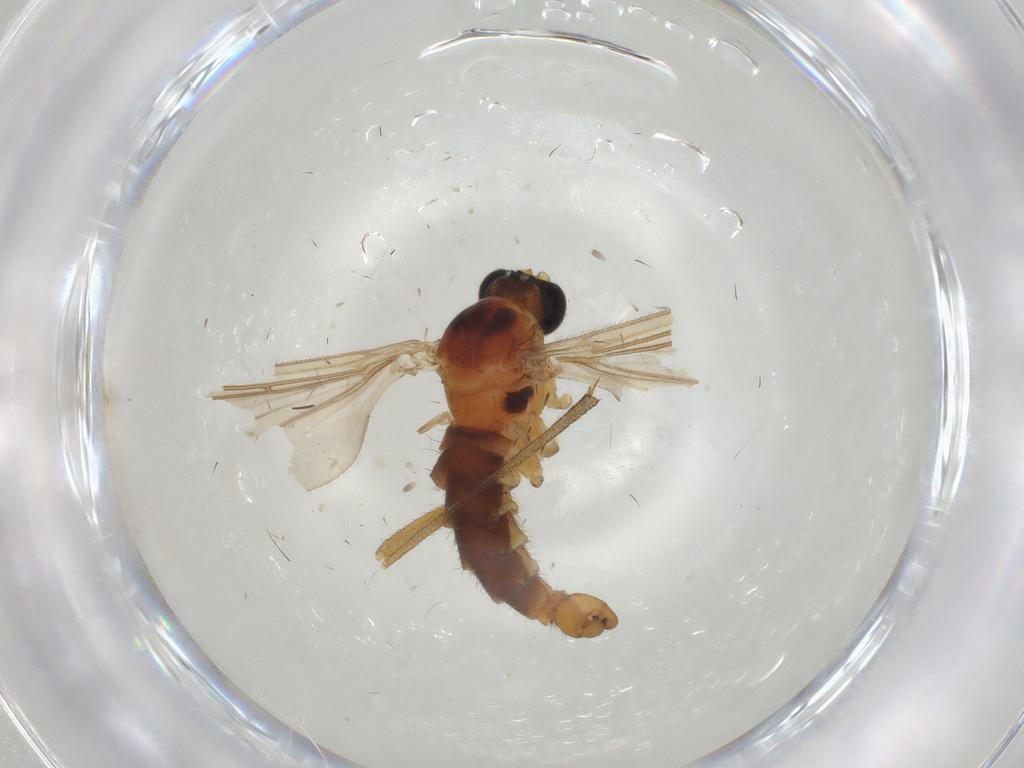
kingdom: Animalia
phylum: Arthropoda
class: Insecta
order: Diptera
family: Sciaridae
